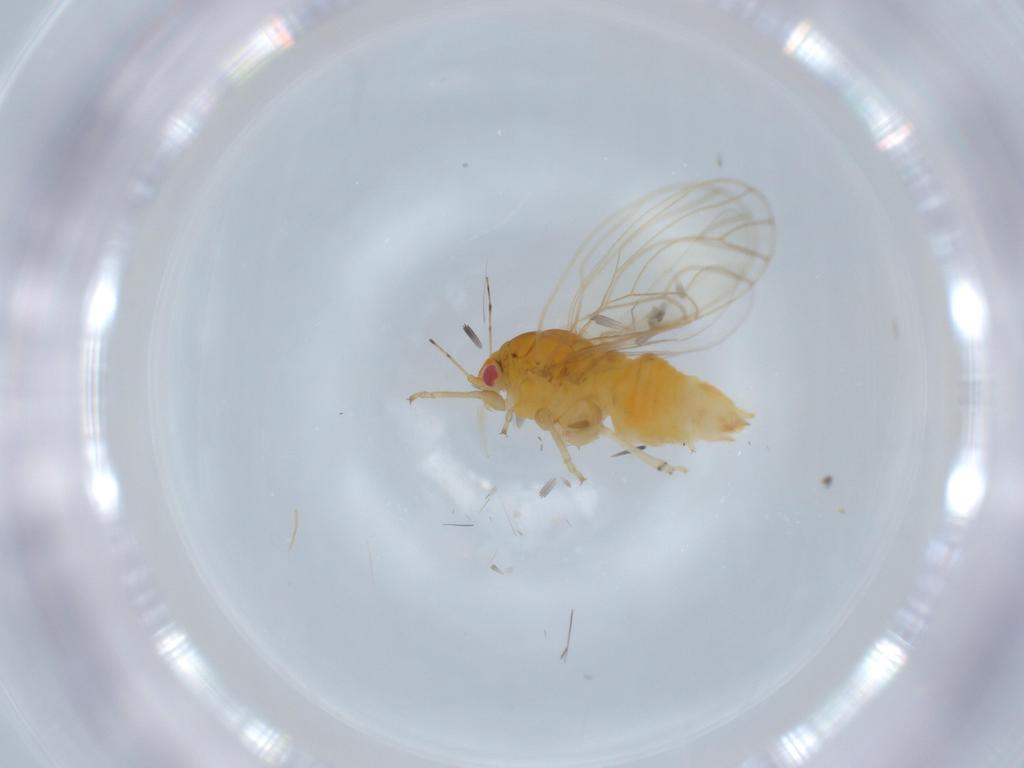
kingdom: Animalia
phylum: Arthropoda
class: Insecta
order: Hemiptera
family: Psylloidea_incertae_sedis
